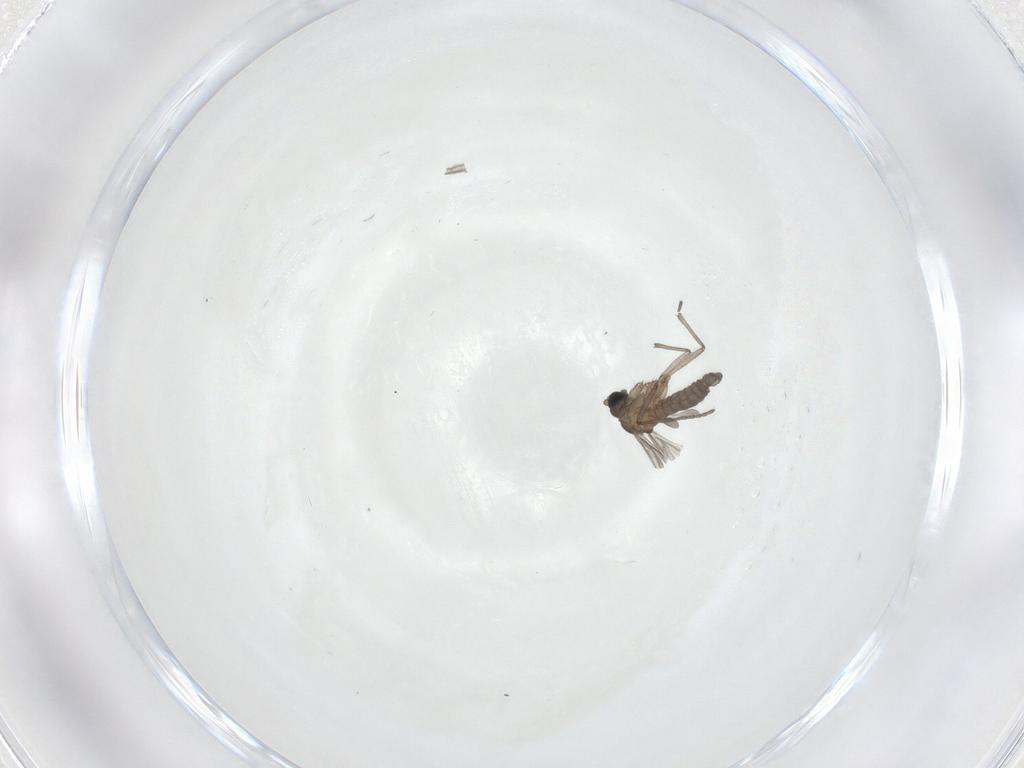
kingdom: Animalia
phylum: Arthropoda
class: Insecta
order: Diptera
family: Sciaridae
